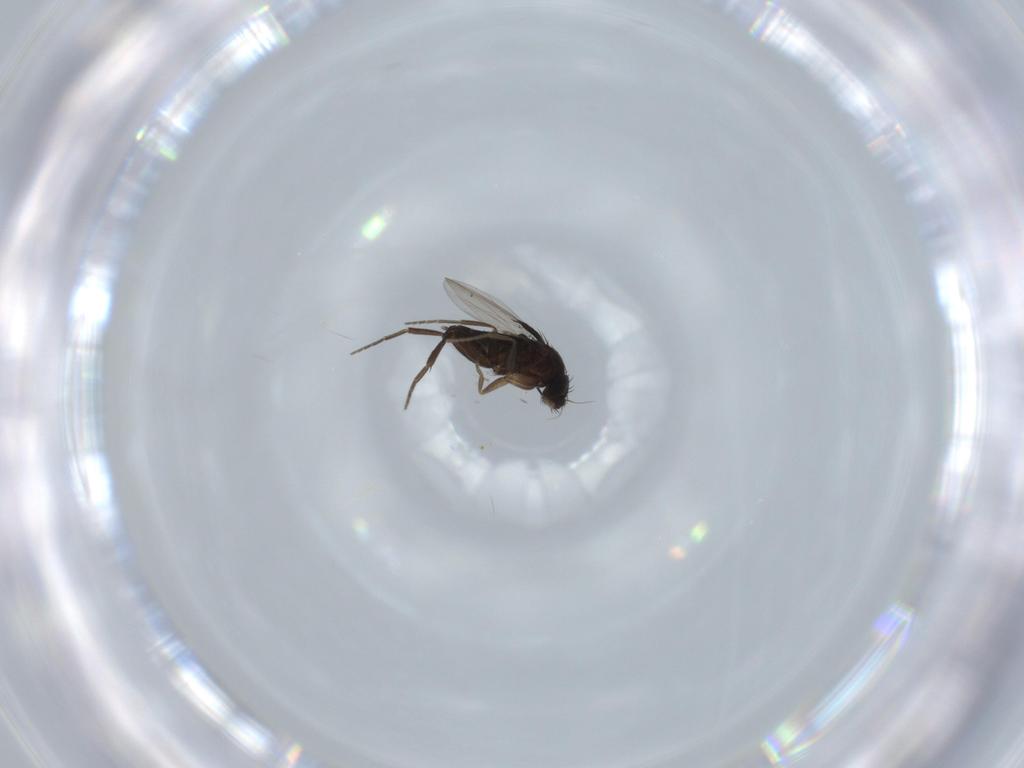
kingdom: Animalia
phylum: Arthropoda
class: Insecta
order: Diptera
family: Phoridae
